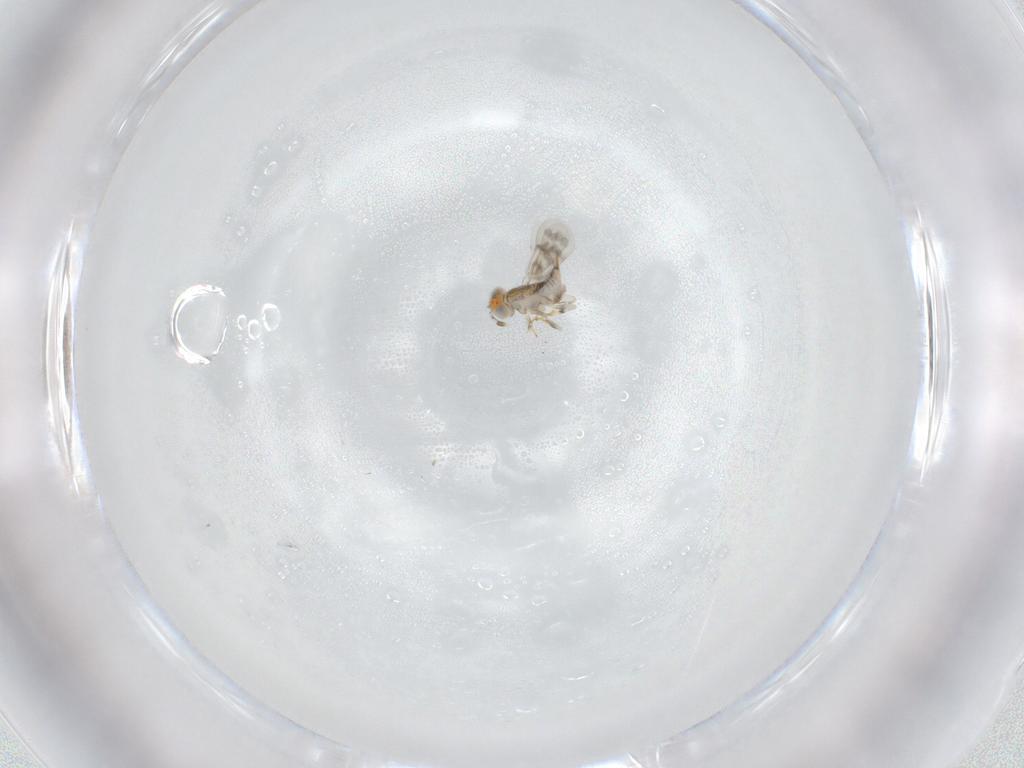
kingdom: Animalia
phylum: Arthropoda
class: Insecta
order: Hymenoptera
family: Aphelinidae
